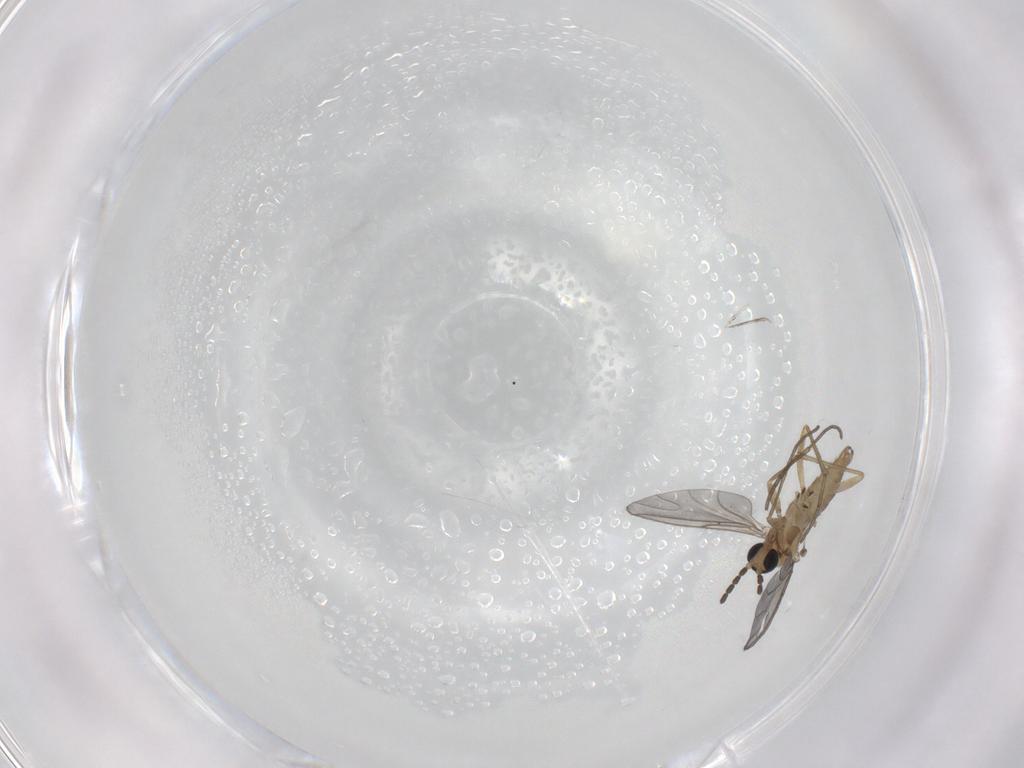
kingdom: Animalia
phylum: Arthropoda
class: Insecta
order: Diptera
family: Sciaridae
